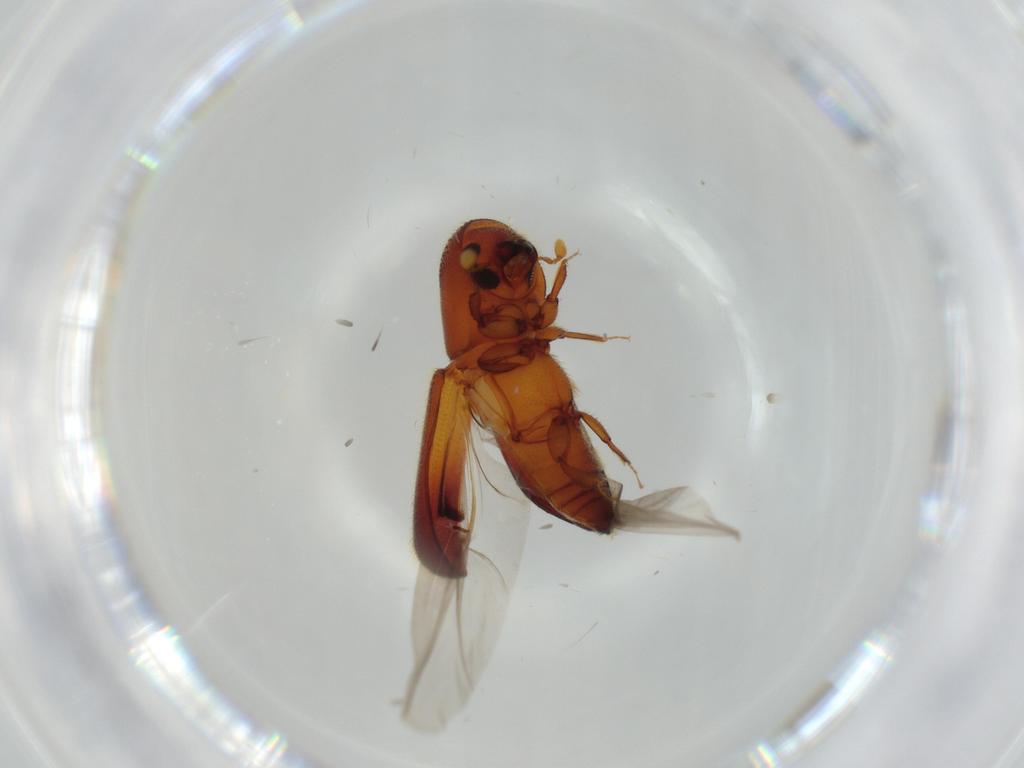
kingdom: Animalia
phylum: Arthropoda
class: Insecta
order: Coleoptera
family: Curculionidae
